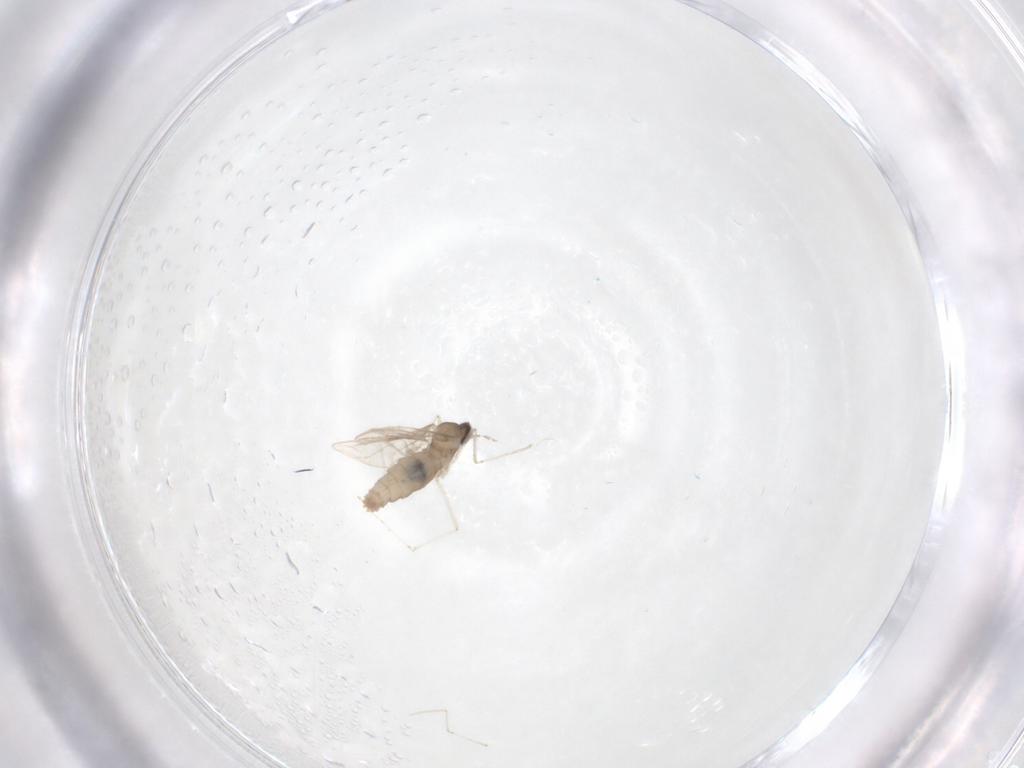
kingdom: Animalia
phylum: Arthropoda
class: Insecta
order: Diptera
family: Cecidomyiidae
